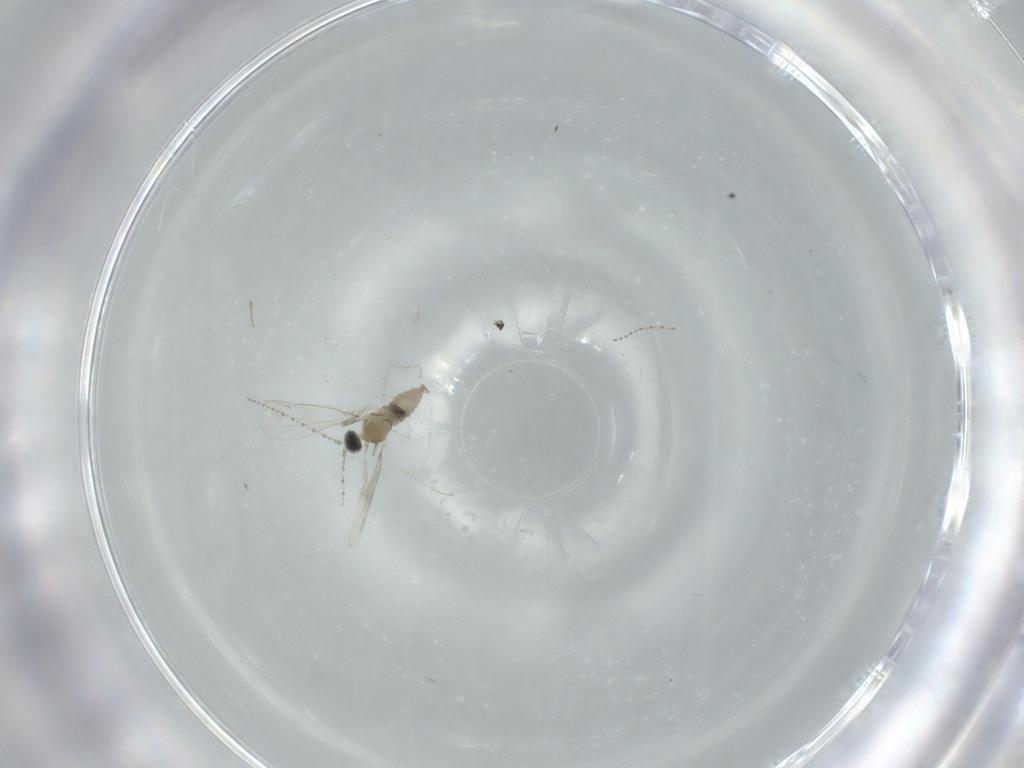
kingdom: Animalia
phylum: Arthropoda
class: Insecta
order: Diptera
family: Cecidomyiidae
